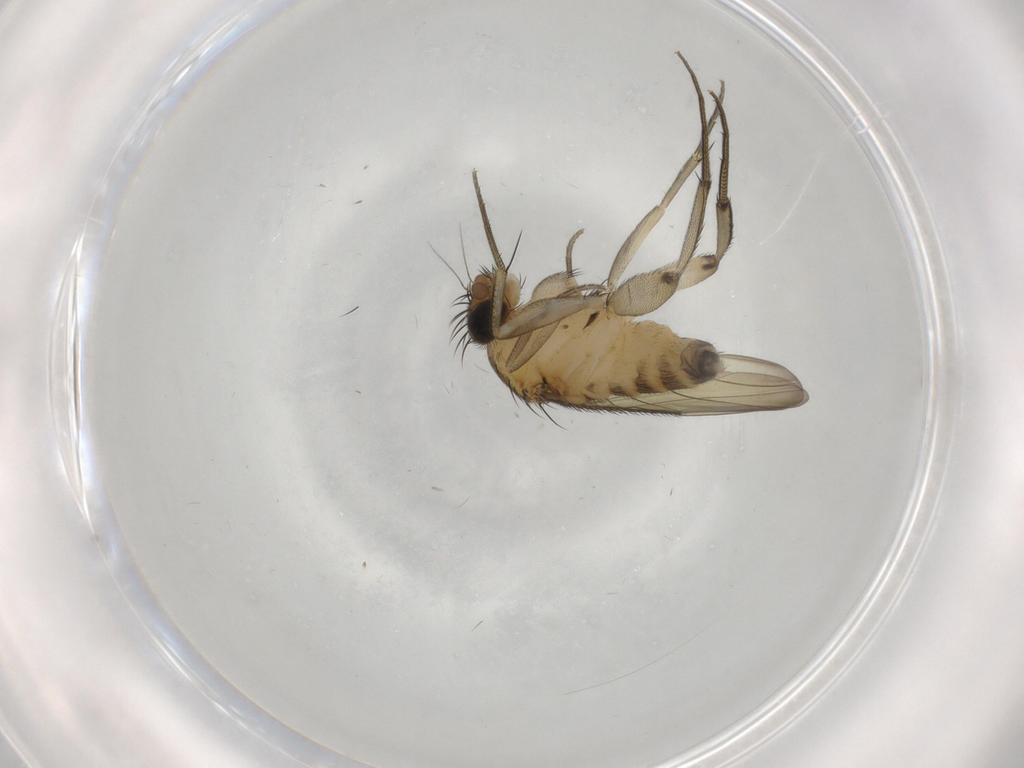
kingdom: Animalia
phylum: Arthropoda
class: Insecta
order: Diptera
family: Phoridae
